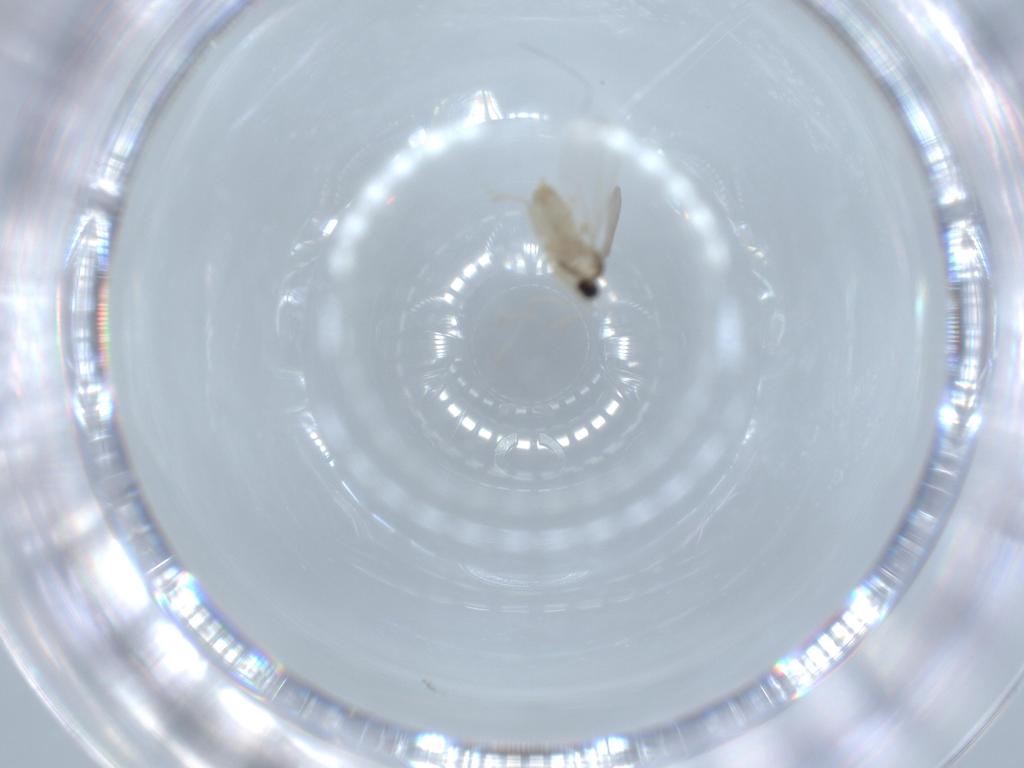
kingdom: Animalia
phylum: Arthropoda
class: Insecta
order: Diptera
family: Cecidomyiidae
